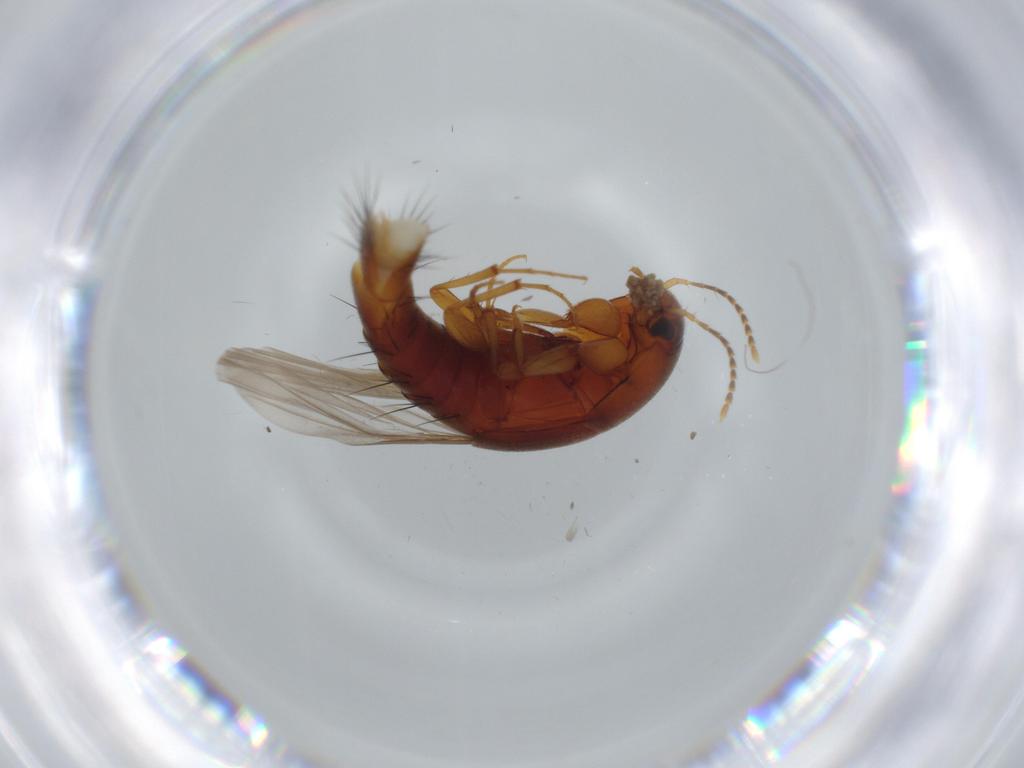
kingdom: Animalia
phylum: Arthropoda
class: Insecta
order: Coleoptera
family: Staphylinidae
